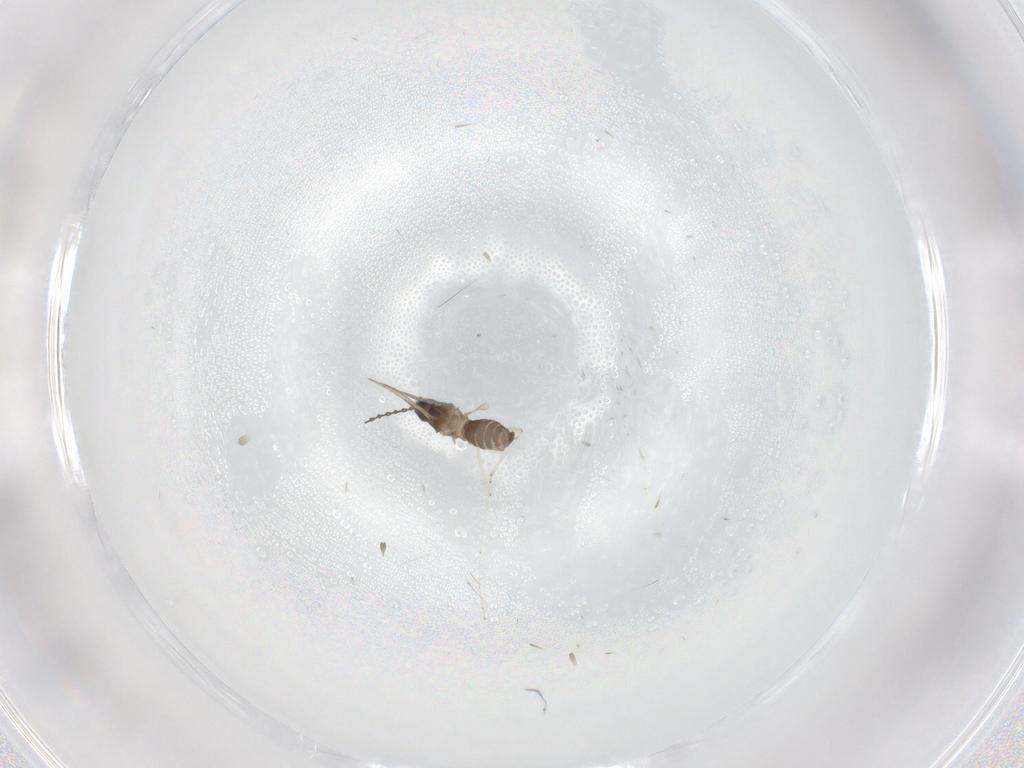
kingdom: Animalia
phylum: Arthropoda
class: Insecta
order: Diptera
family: Cecidomyiidae
